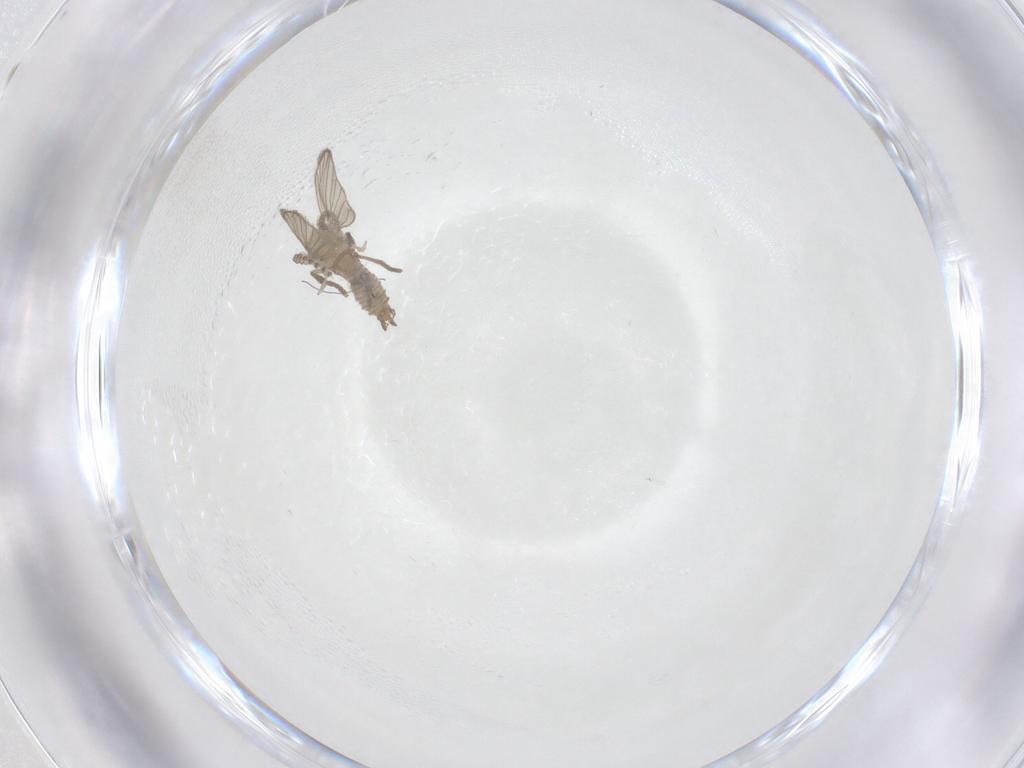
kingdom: Animalia
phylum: Arthropoda
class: Insecta
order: Diptera
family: Psychodidae
